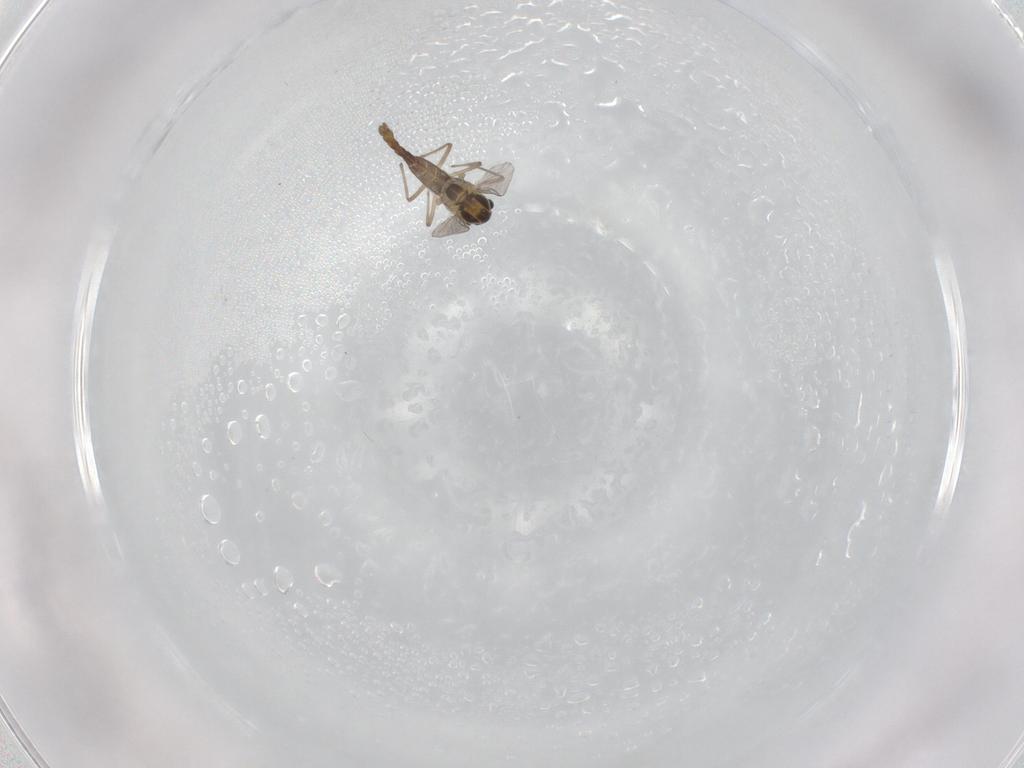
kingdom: Animalia
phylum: Arthropoda
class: Insecta
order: Diptera
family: Chironomidae
